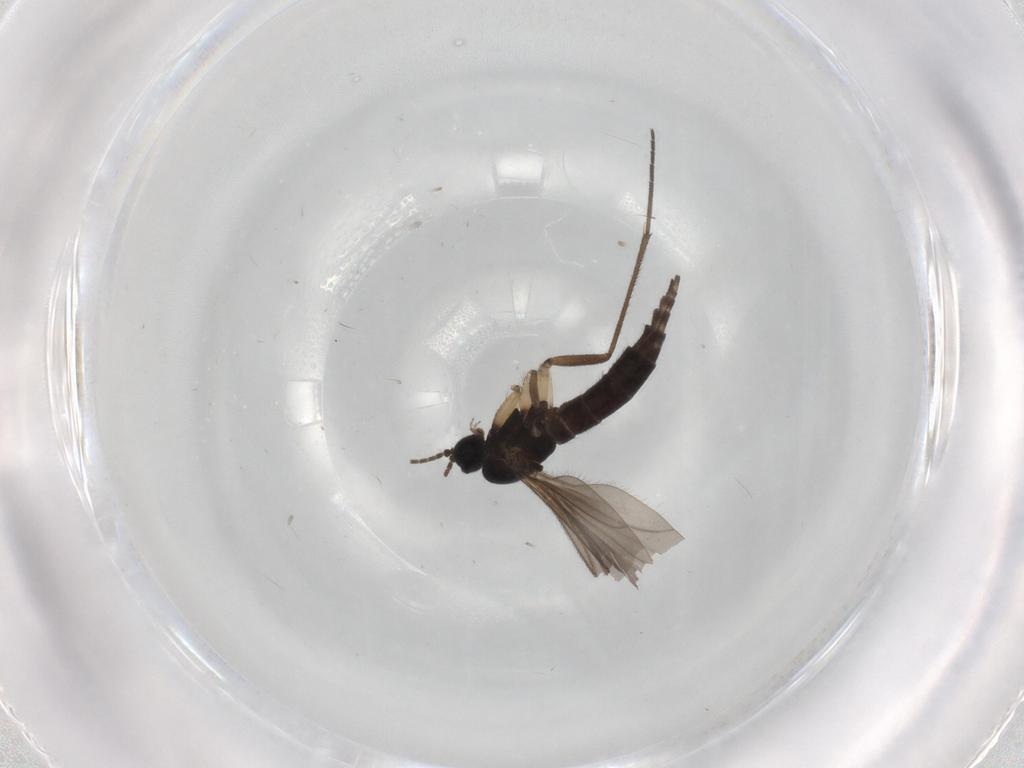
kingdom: Animalia
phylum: Arthropoda
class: Insecta
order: Diptera
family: Sciaridae
